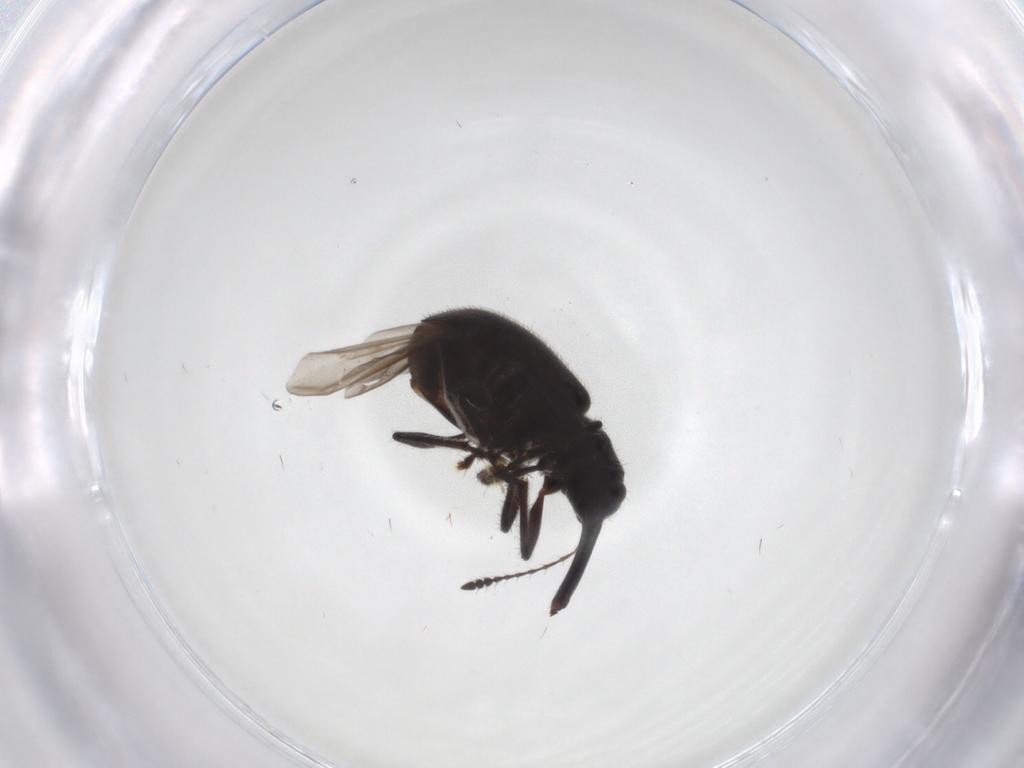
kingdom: Animalia
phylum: Arthropoda
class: Insecta
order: Coleoptera
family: Attelabidae
